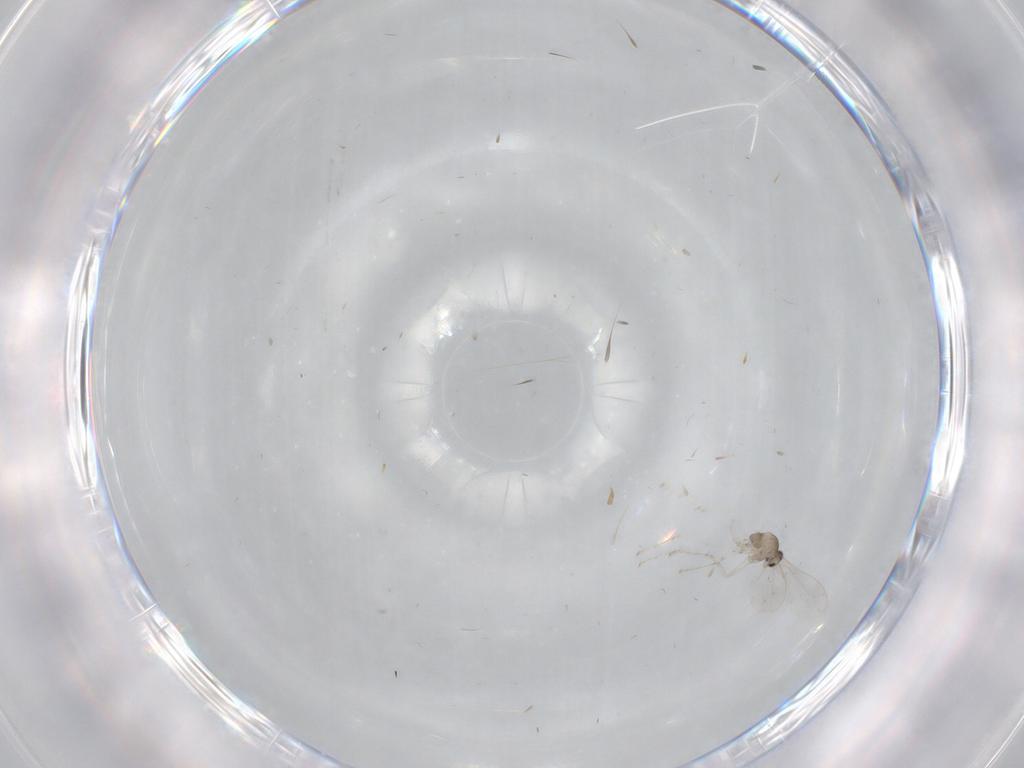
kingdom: Animalia
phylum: Arthropoda
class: Insecta
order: Diptera
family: Cecidomyiidae
